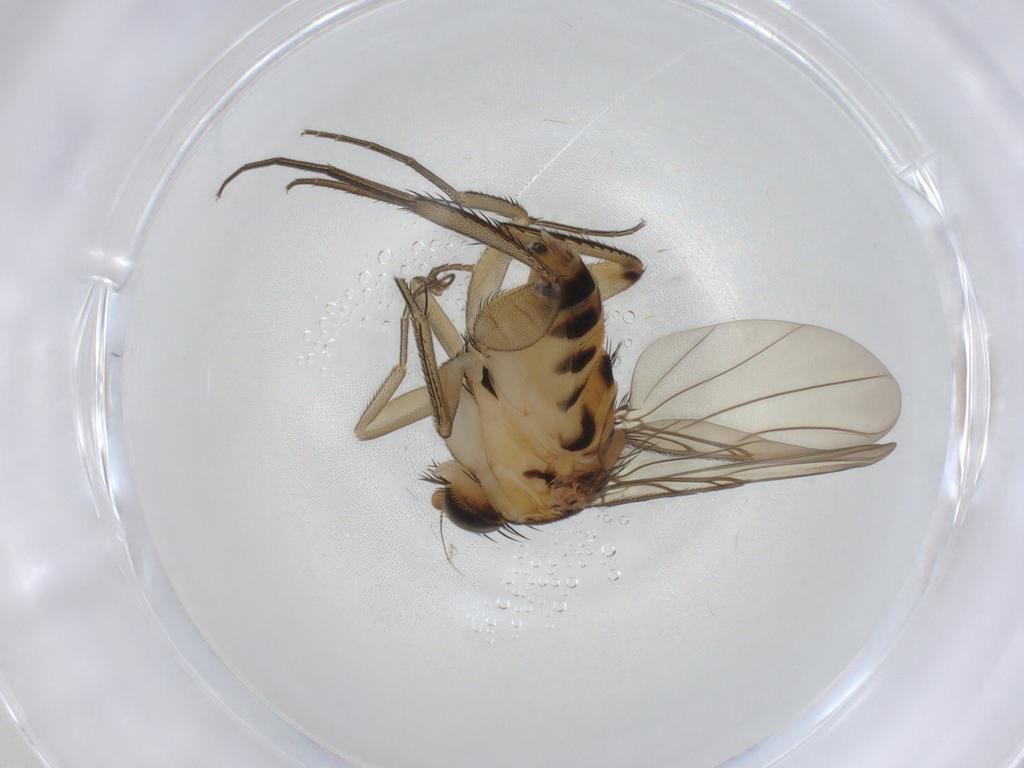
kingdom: Animalia
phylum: Arthropoda
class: Insecta
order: Diptera
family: Phoridae
